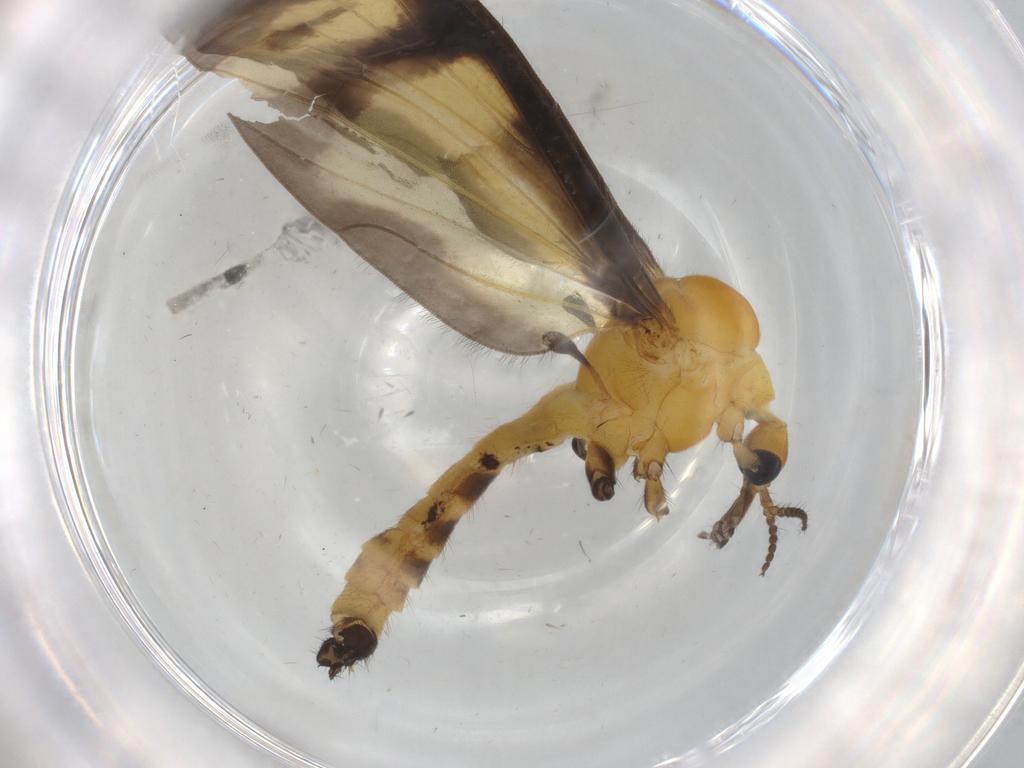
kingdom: Animalia
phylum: Arthropoda
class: Insecta
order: Diptera
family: Limoniidae
